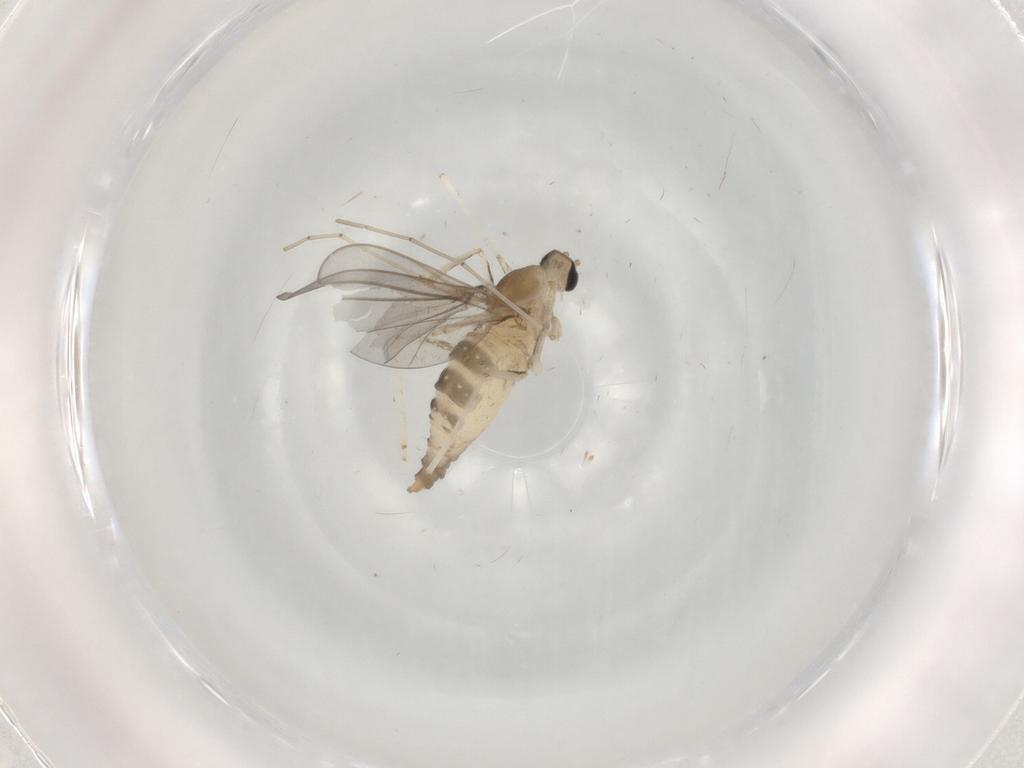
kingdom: Animalia
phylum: Arthropoda
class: Insecta
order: Diptera
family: Cecidomyiidae
